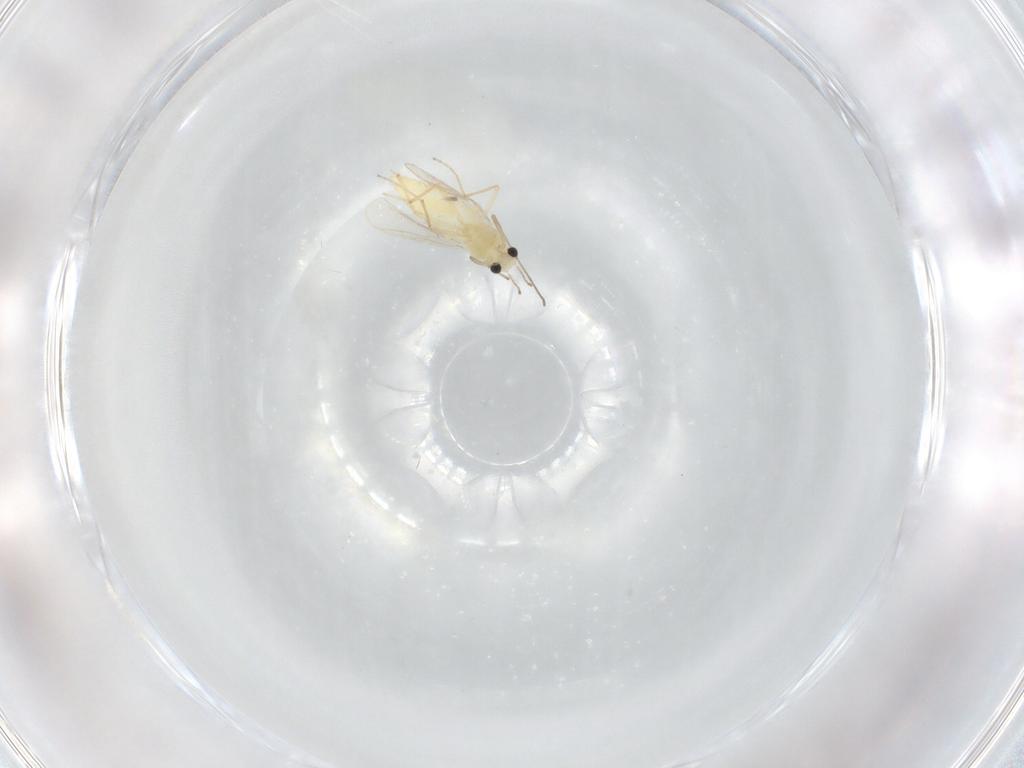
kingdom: Animalia
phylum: Arthropoda
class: Insecta
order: Diptera
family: Chironomidae
